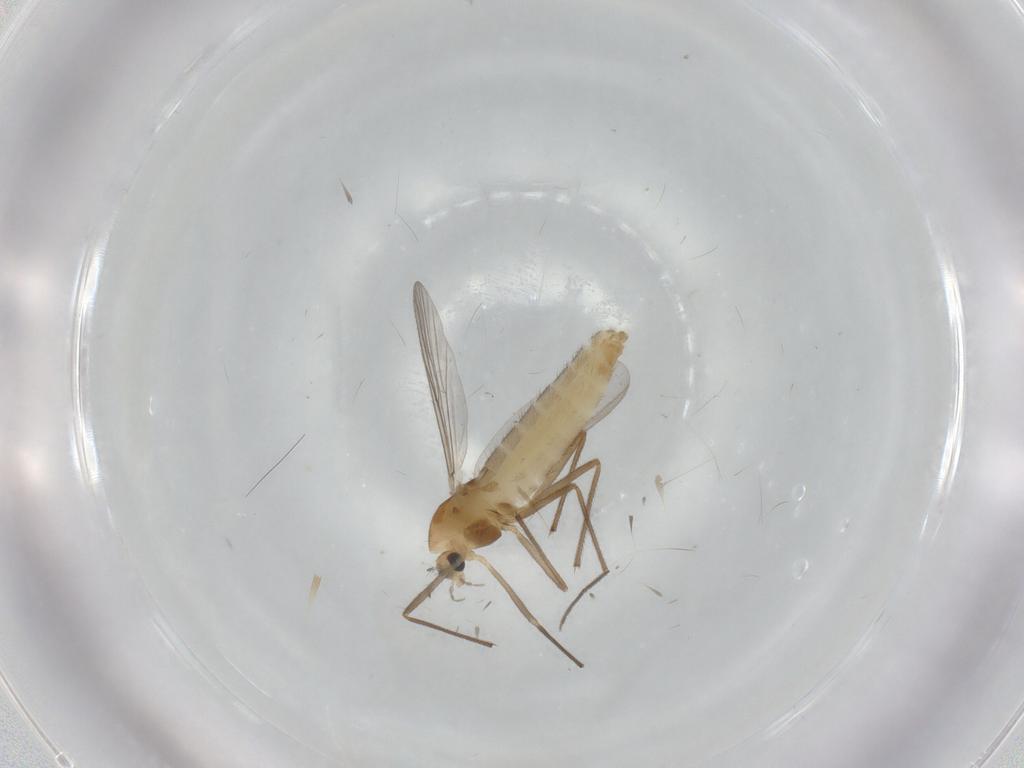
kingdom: Animalia
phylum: Arthropoda
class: Insecta
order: Diptera
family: Chironomidae
